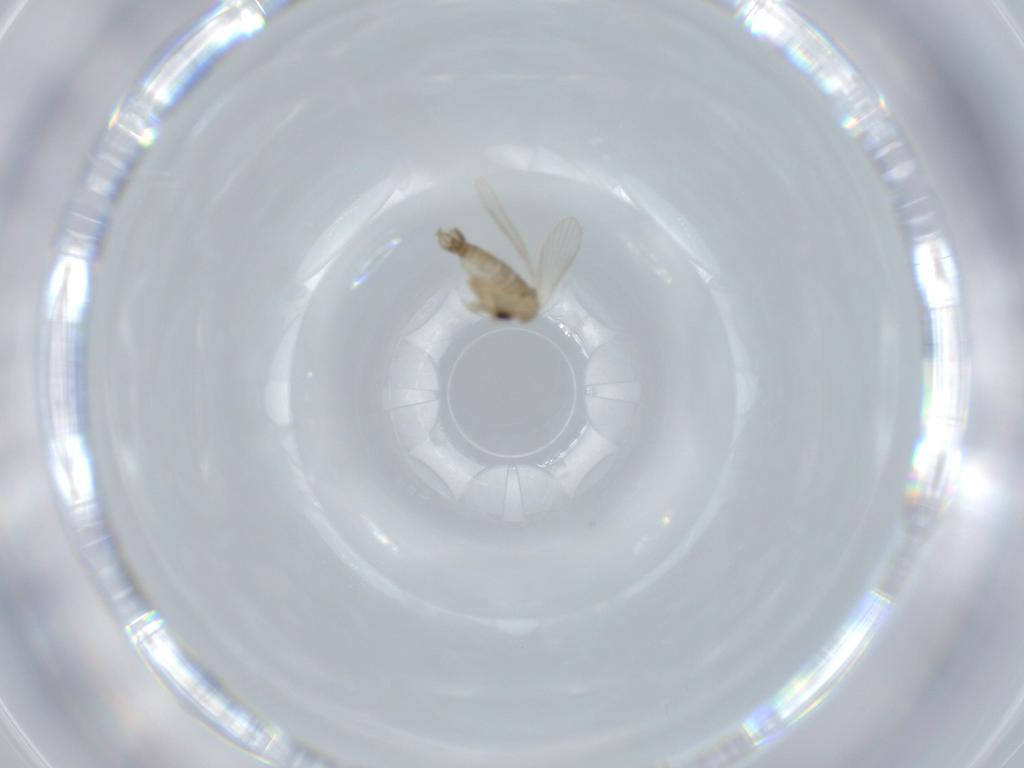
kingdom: Animalia
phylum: Arthropoda
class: Insecta
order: Diptera
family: Psychodidae
